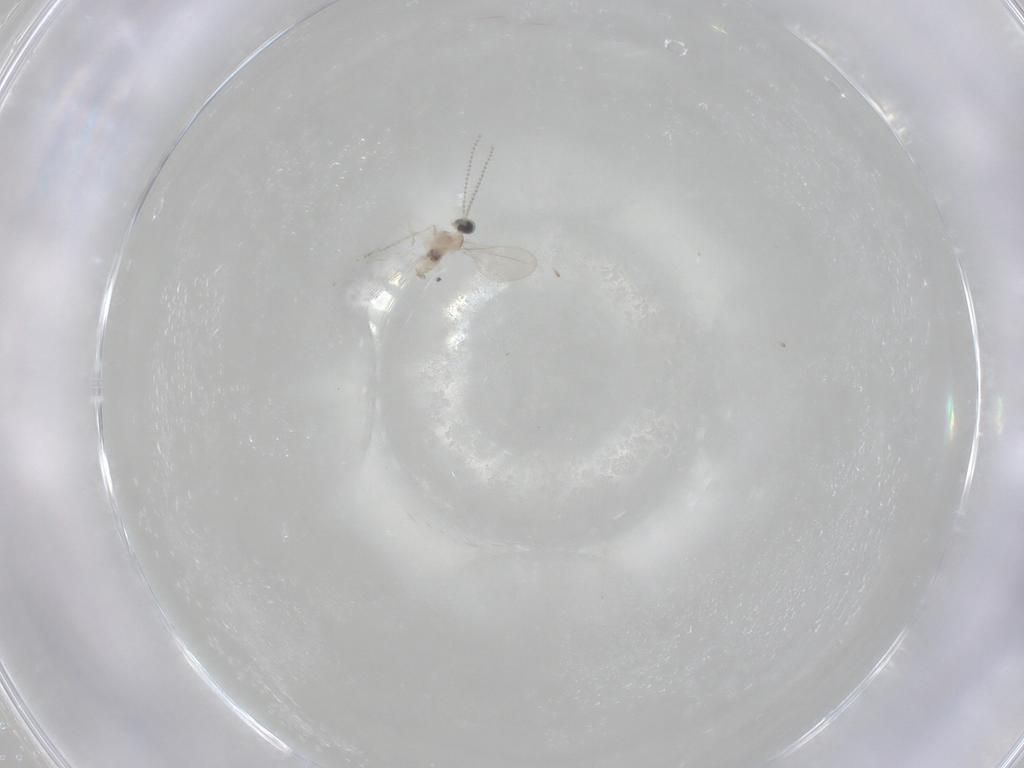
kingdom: Animalia
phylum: Arthropoda
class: Insecta
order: Diptera
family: Cecidomyiidae
